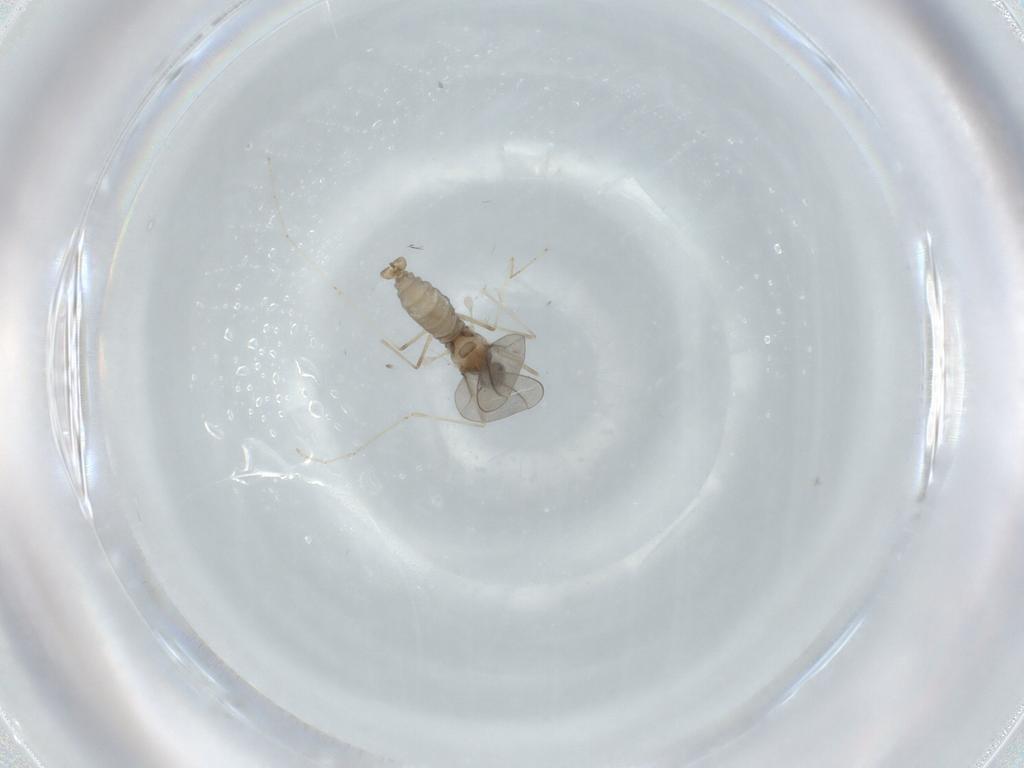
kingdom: Animalia
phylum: Arthropoda
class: Insecta
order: Diptera
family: Cecidomyiidae
